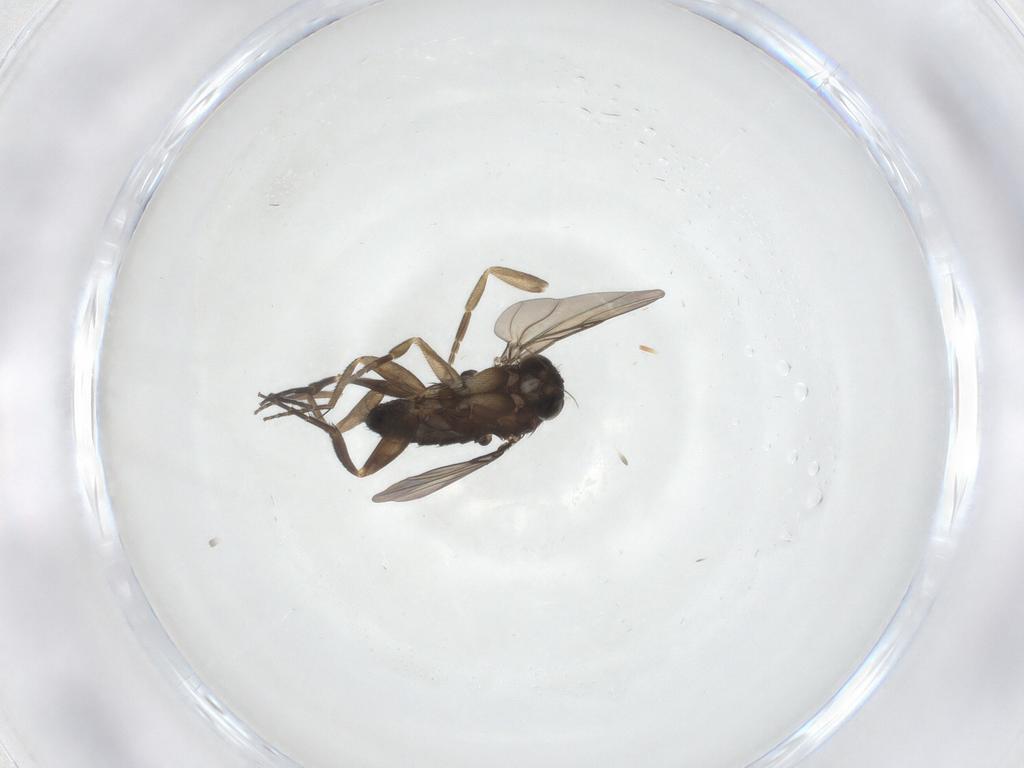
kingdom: Animalia
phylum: Arthropoda
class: Insecta
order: Diptera
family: Phoridae
